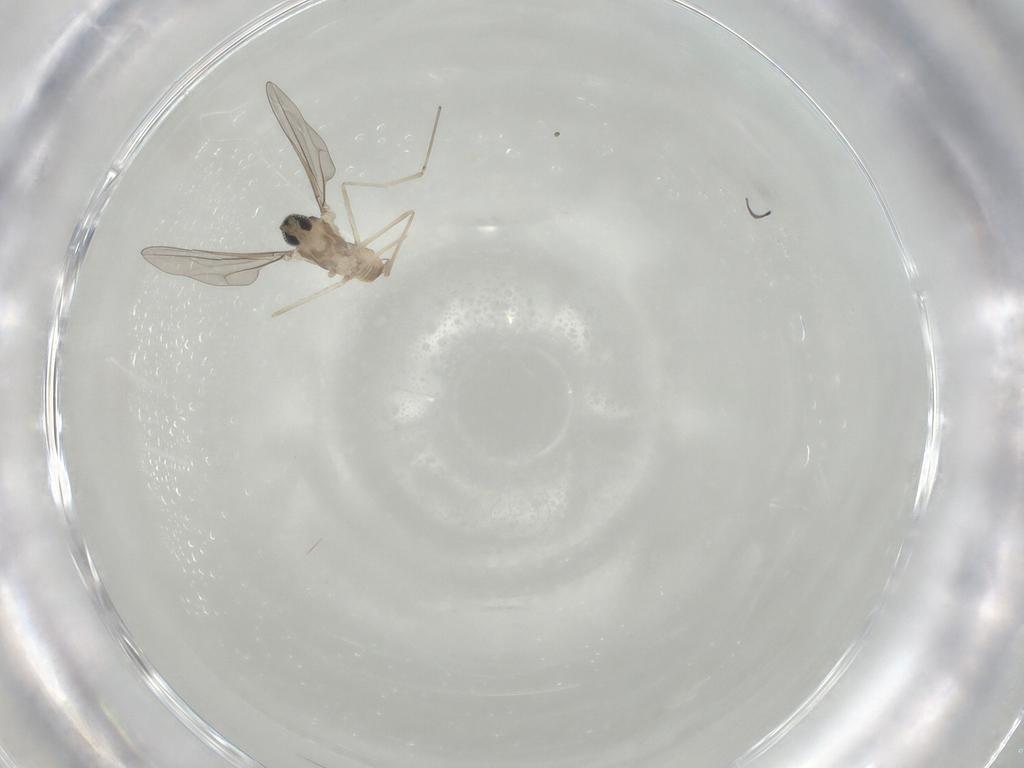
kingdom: Animalia
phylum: Arthropoda
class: Insecta
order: Diptera
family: Cecidomyiidae
